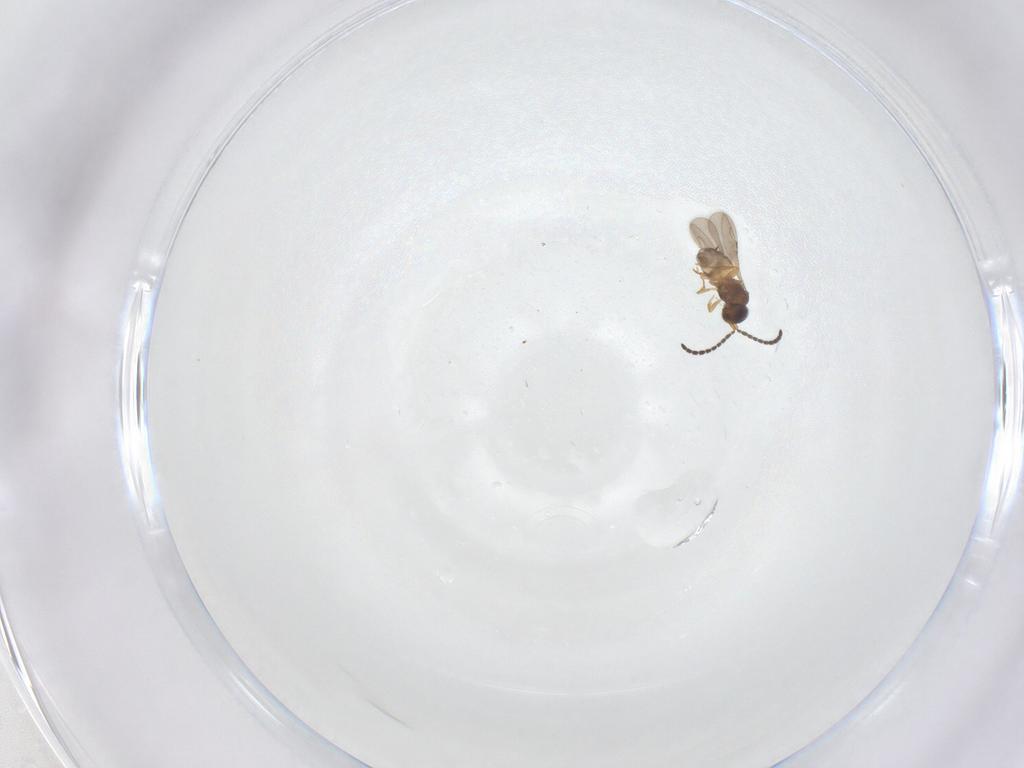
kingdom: Animalia
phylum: Arthropoda
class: Insecta
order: Hymenoptera
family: Ceraphronidae
